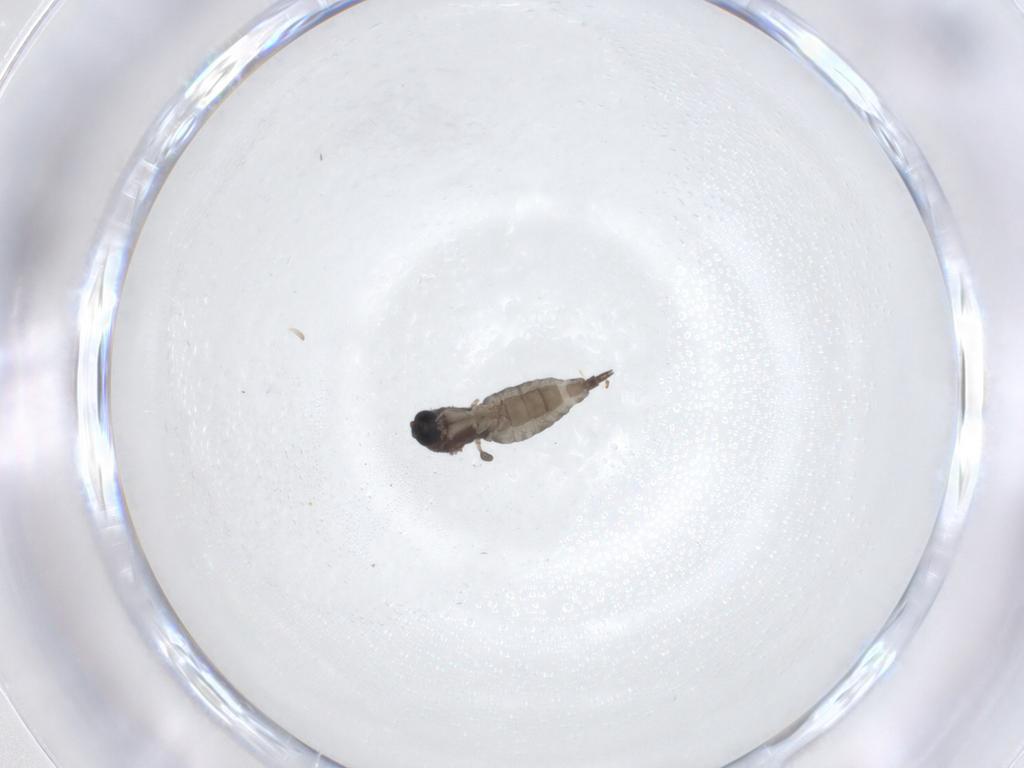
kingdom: Animalia
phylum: Arthropoda
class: Insecta
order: Diptera
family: Sciaridae
